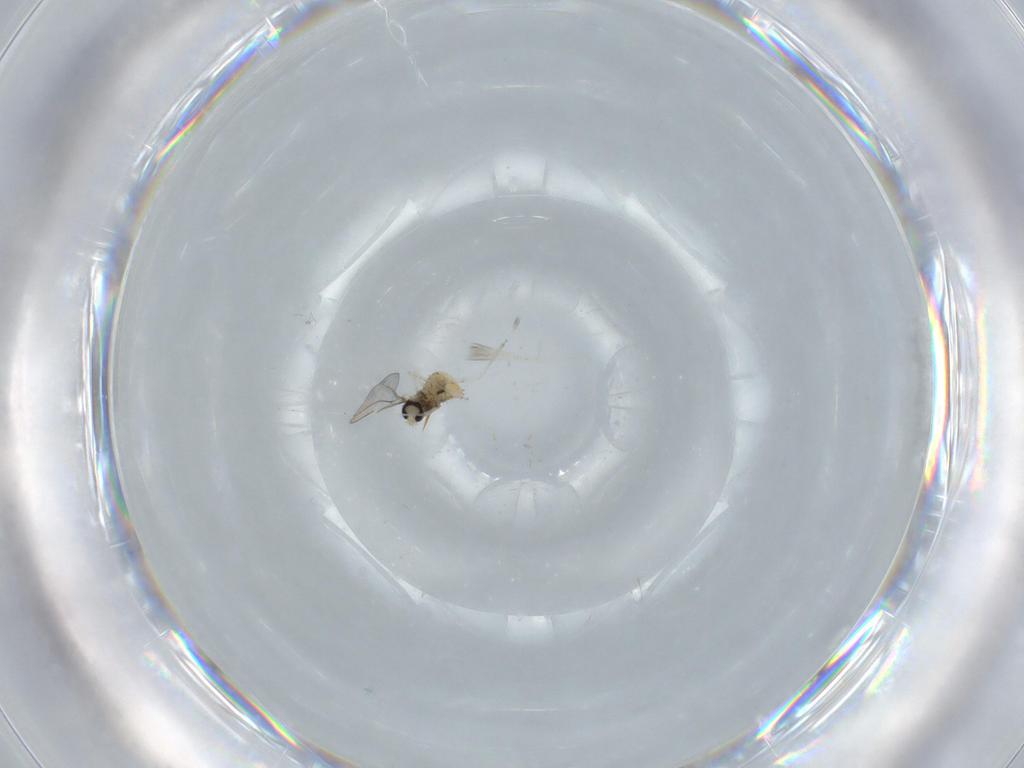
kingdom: Animalia
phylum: Arthropoda
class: Insecta
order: Diptera
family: Cecidomyiidae
